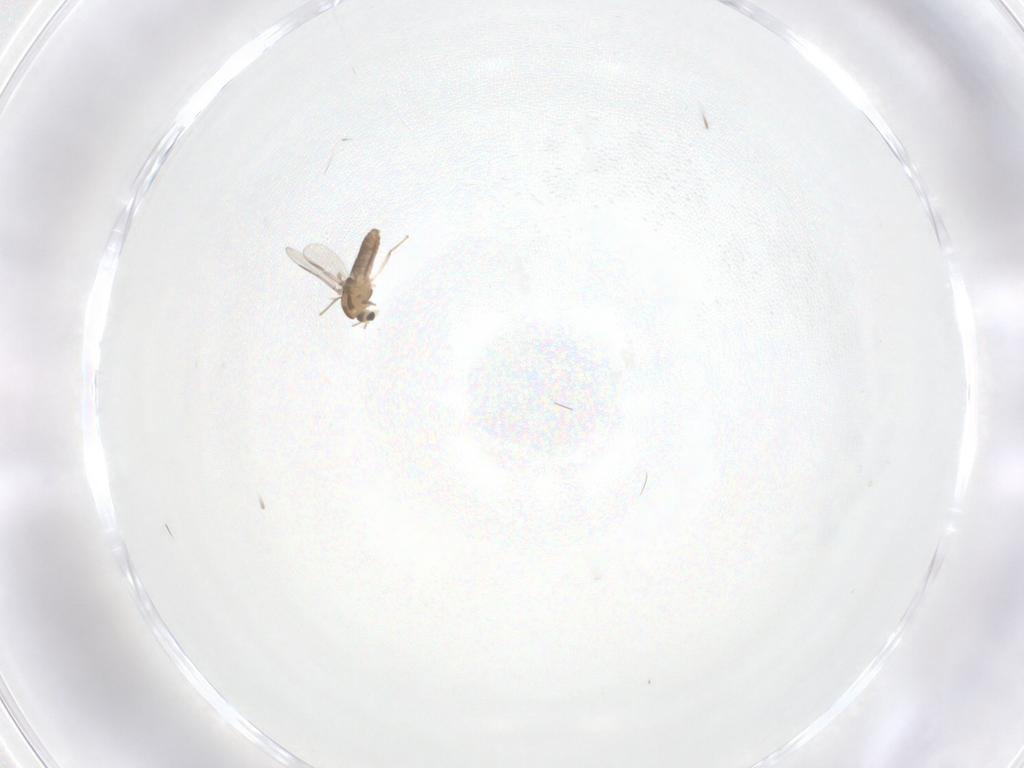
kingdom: Animalia
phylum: Arthropoda
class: Insecta
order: Diptera
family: Chironomidae
